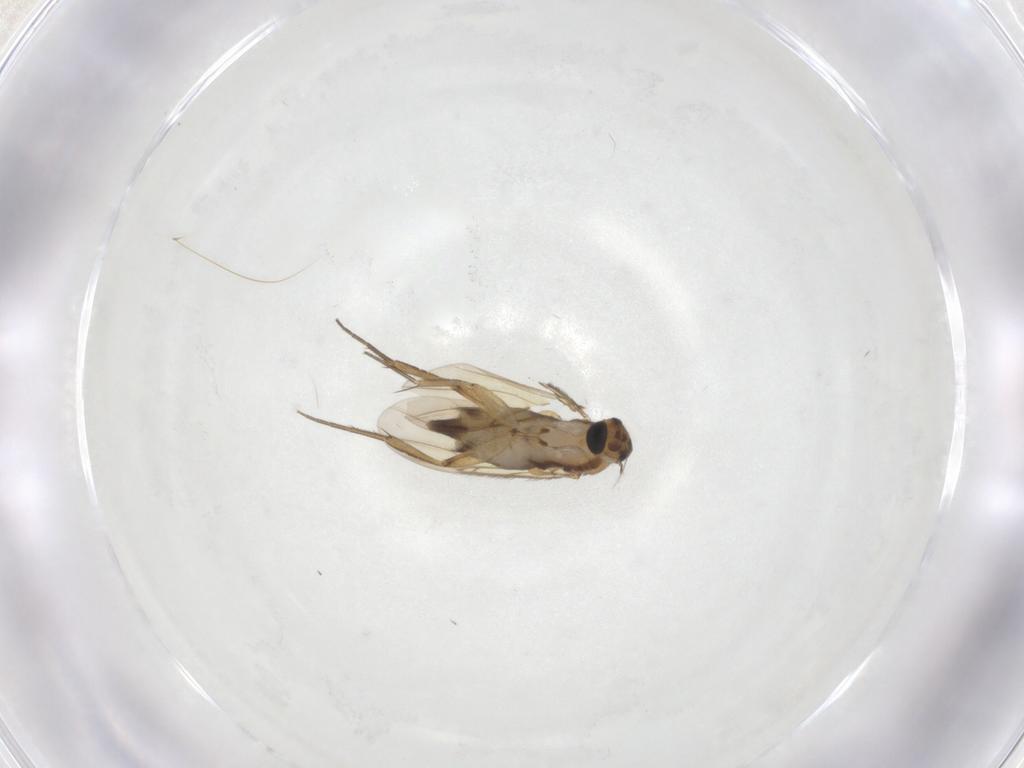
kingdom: Animalia
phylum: Arthropoda
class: Insecta
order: Diptera
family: Phoridae
